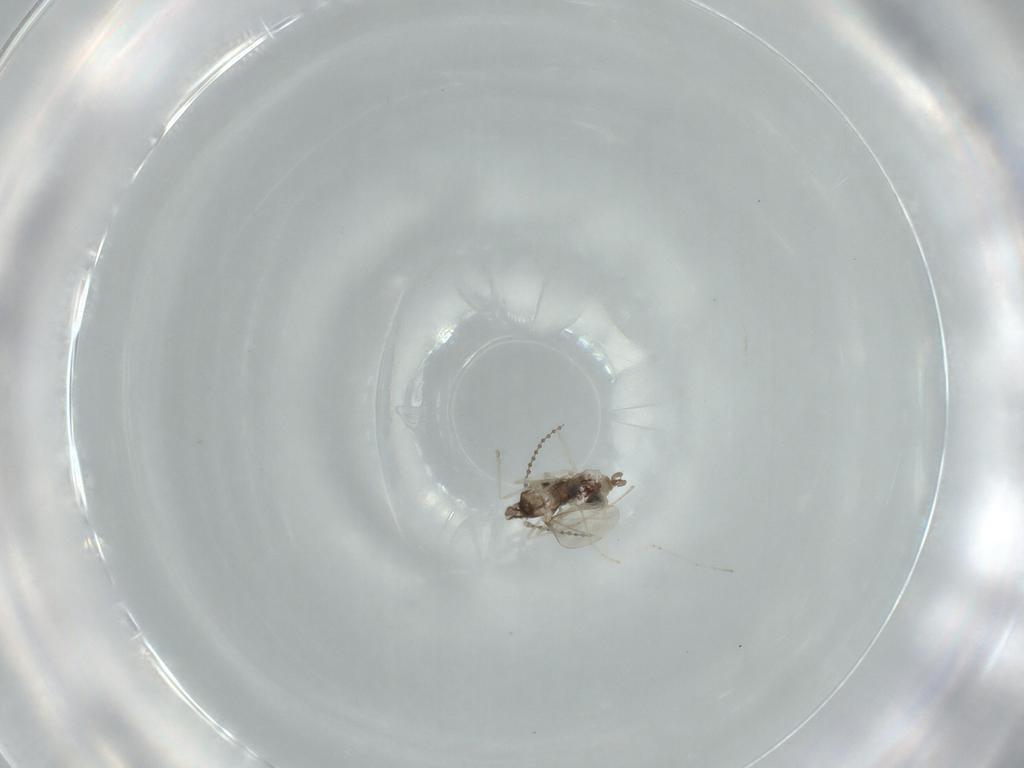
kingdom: Animalia
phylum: Arthropoda
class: Insecta
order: Diptera
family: Cecidomyiidae
